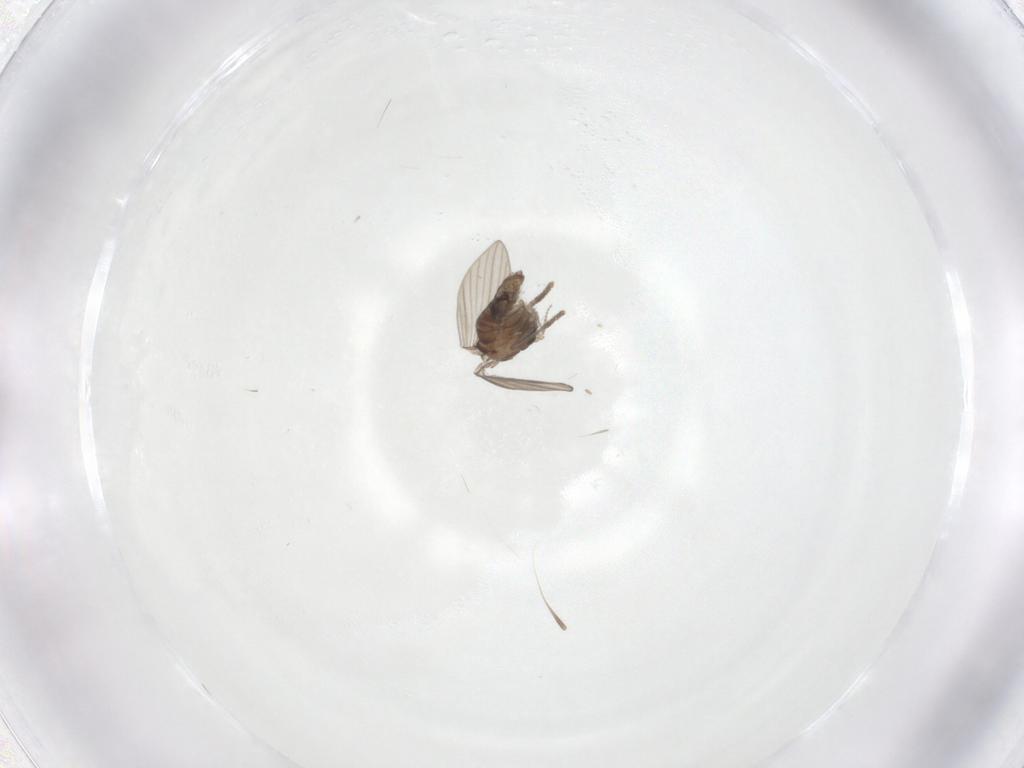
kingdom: Animalia
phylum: Arthropoda
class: Insecta
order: Diptera
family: Psychodidae
